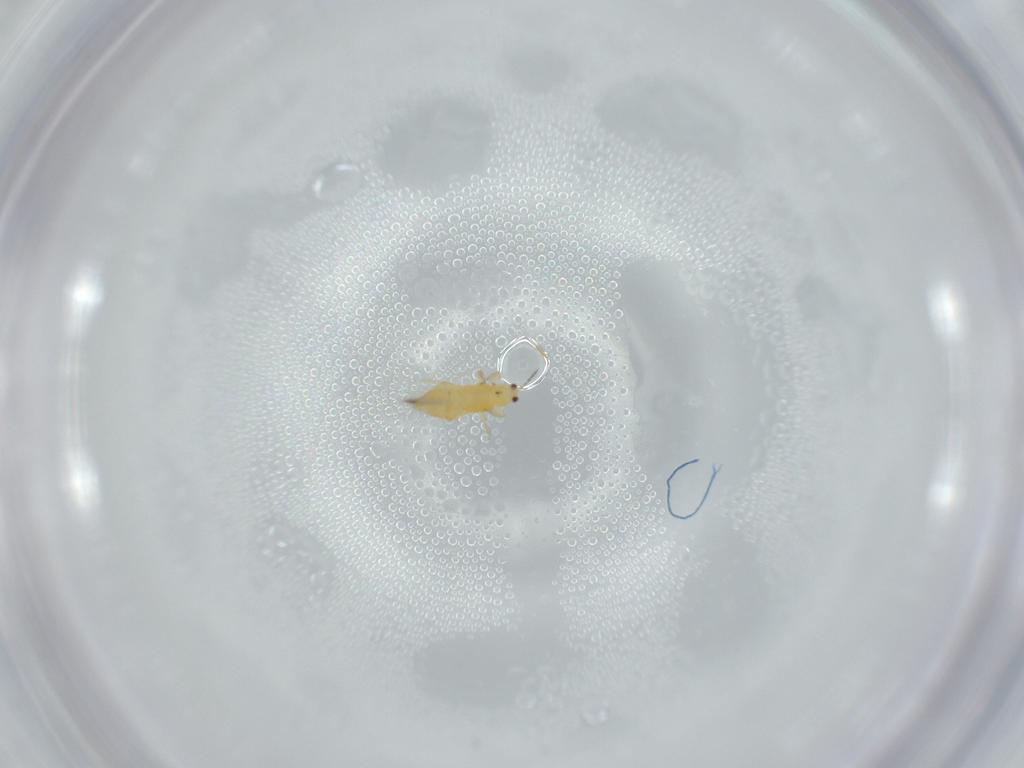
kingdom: Animalia
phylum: Arthropoda
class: Insecta
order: Thysanoptera
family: Thripidae
